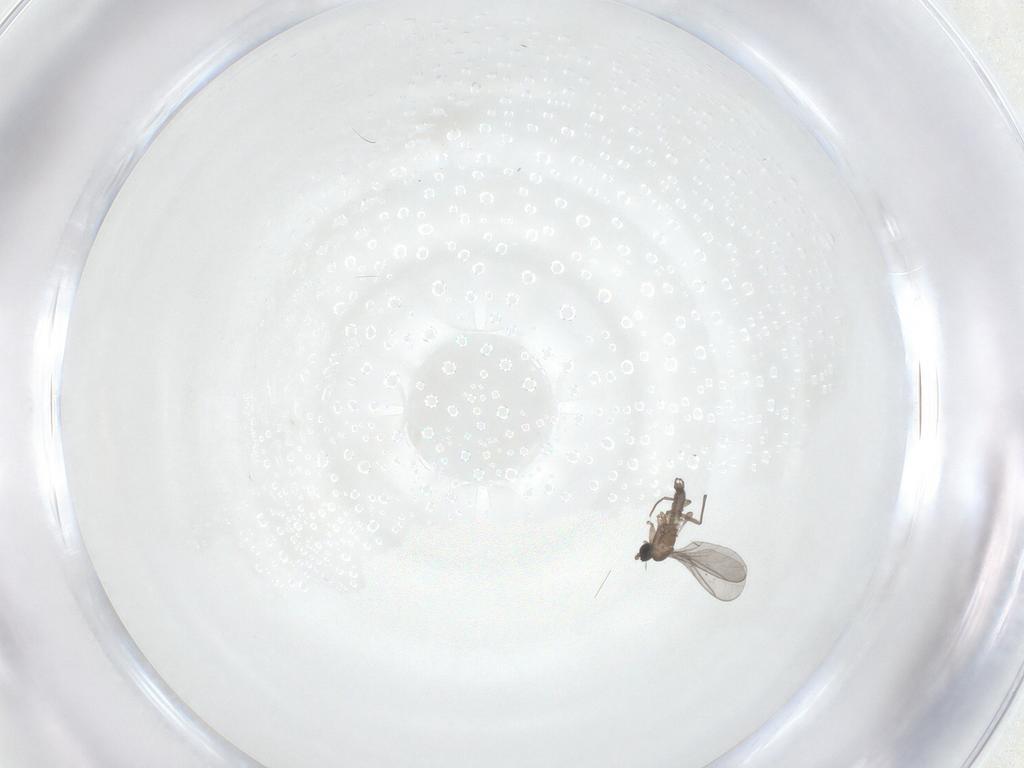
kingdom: Animalia
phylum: Arthropoda
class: Insecta
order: Diptera
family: Sciaridae
